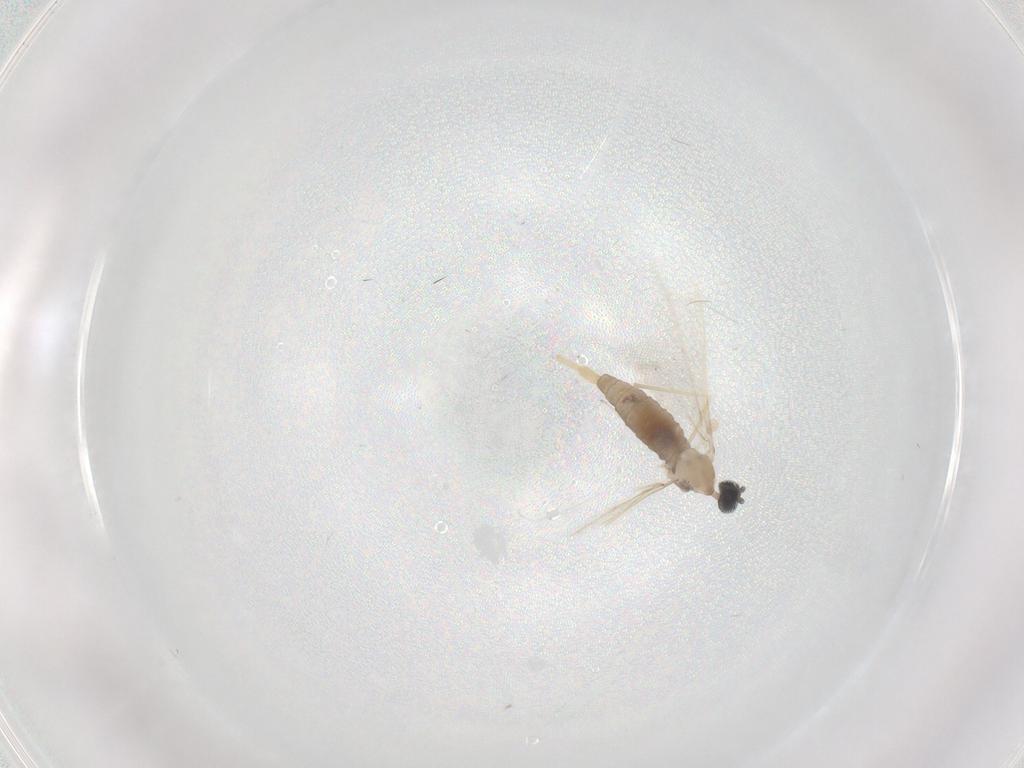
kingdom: Animalia
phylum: Arthropoda
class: Insecta
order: Diptera
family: Cecidomyiidae
